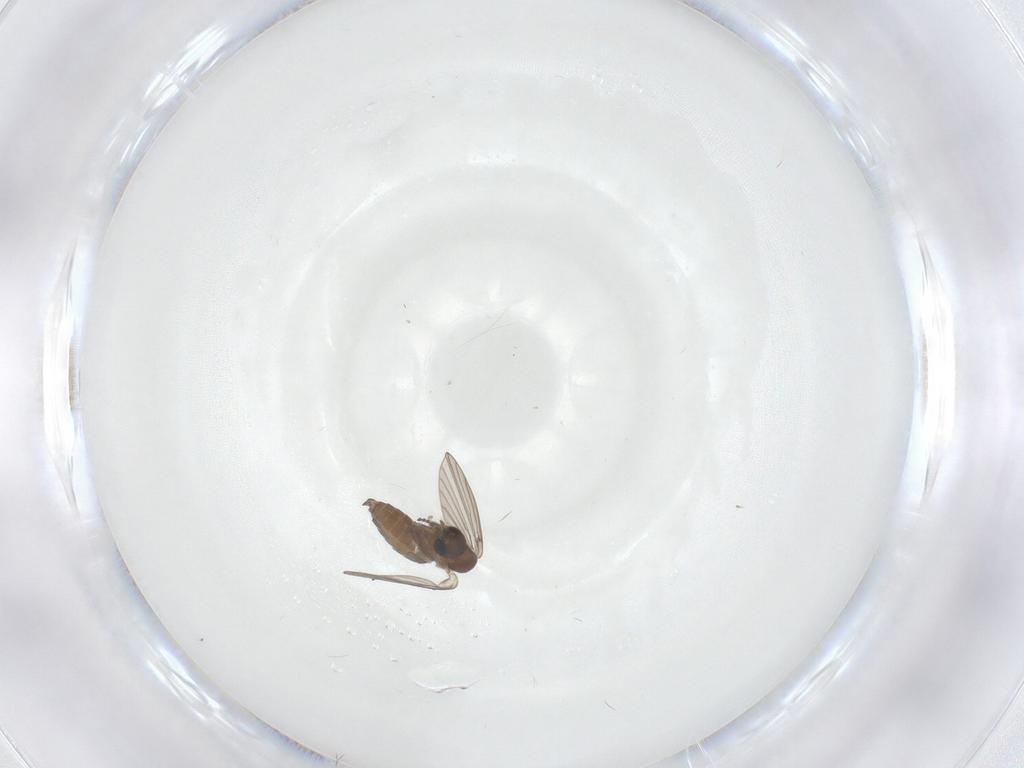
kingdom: Animalia
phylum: Arthropoda
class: Insecta
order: Diptera
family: Psychodidae
